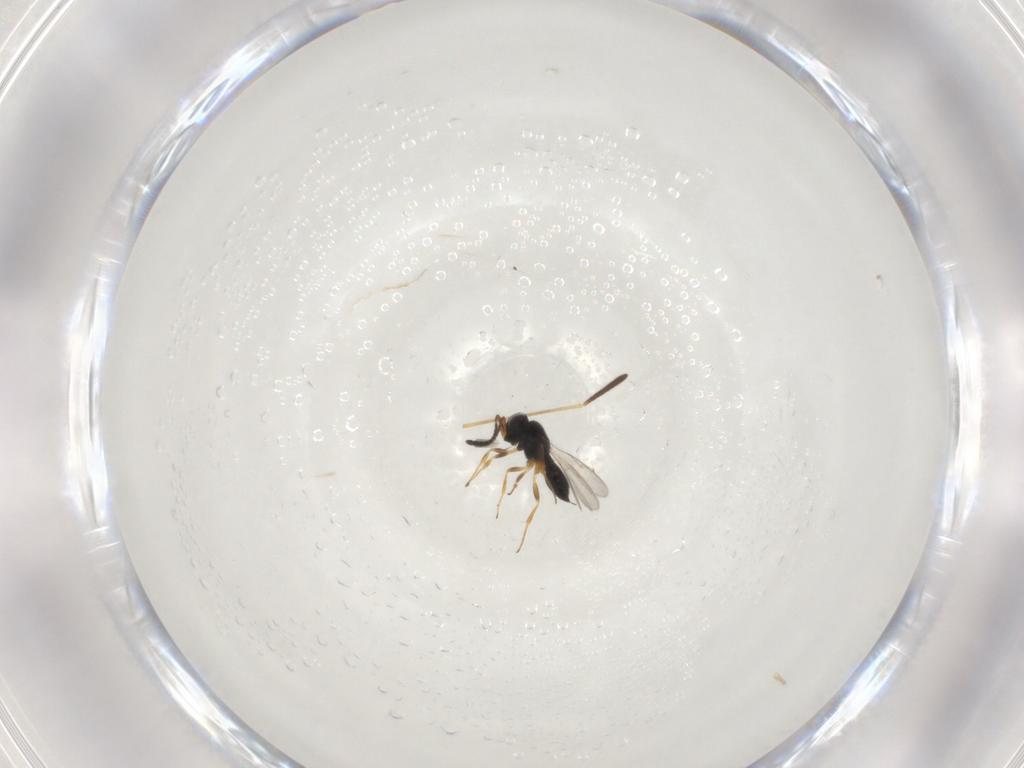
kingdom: Animalia
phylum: Arthropoda
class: Insecta
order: Hymenoptera
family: Scelionidae
